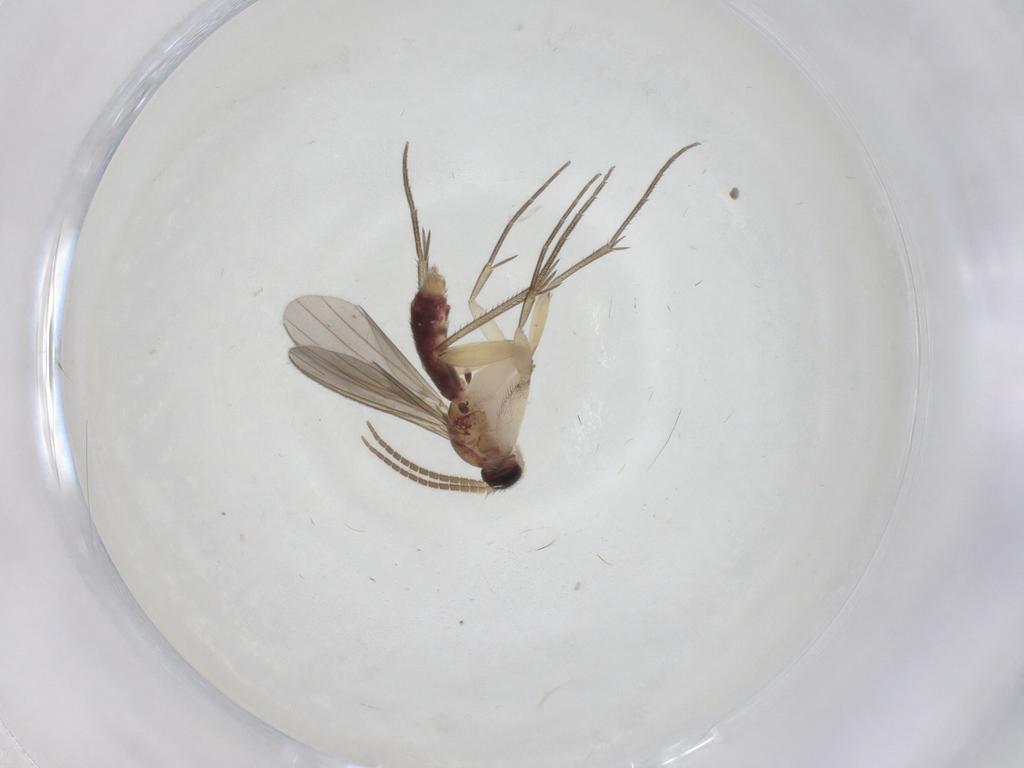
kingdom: Animalia
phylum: Arthropoda
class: Insecta
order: Diptera
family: Mycetophilidae
